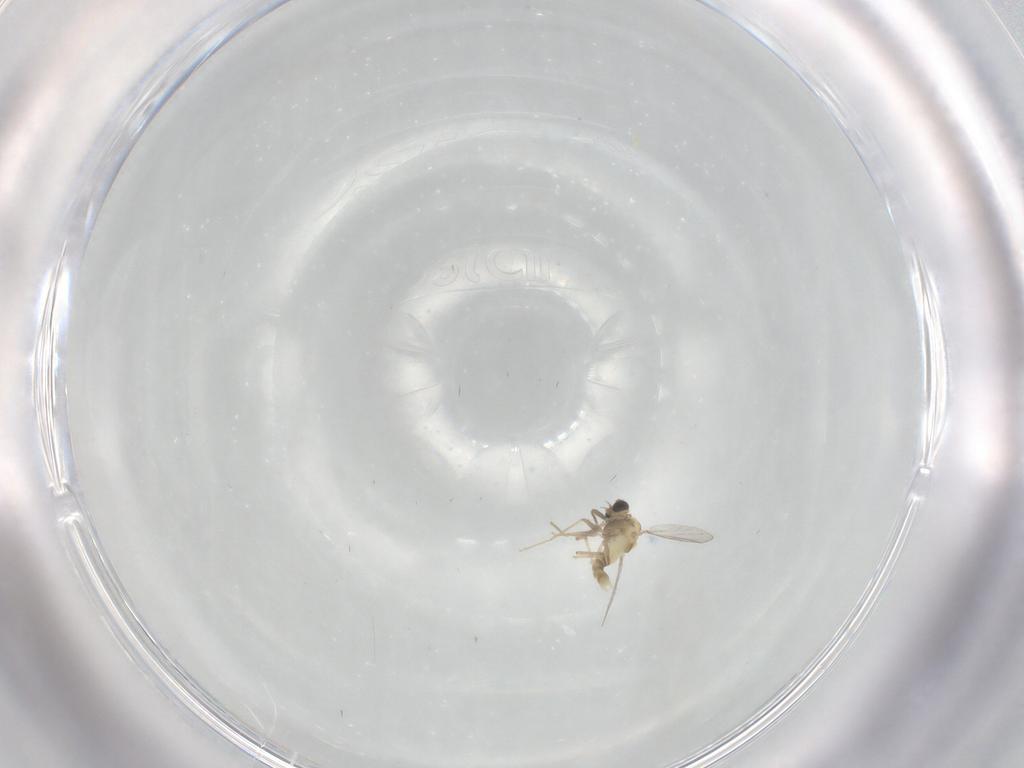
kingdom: Animalia
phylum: Arthropoda
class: Insecta
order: Diptera
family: Chironomidae
